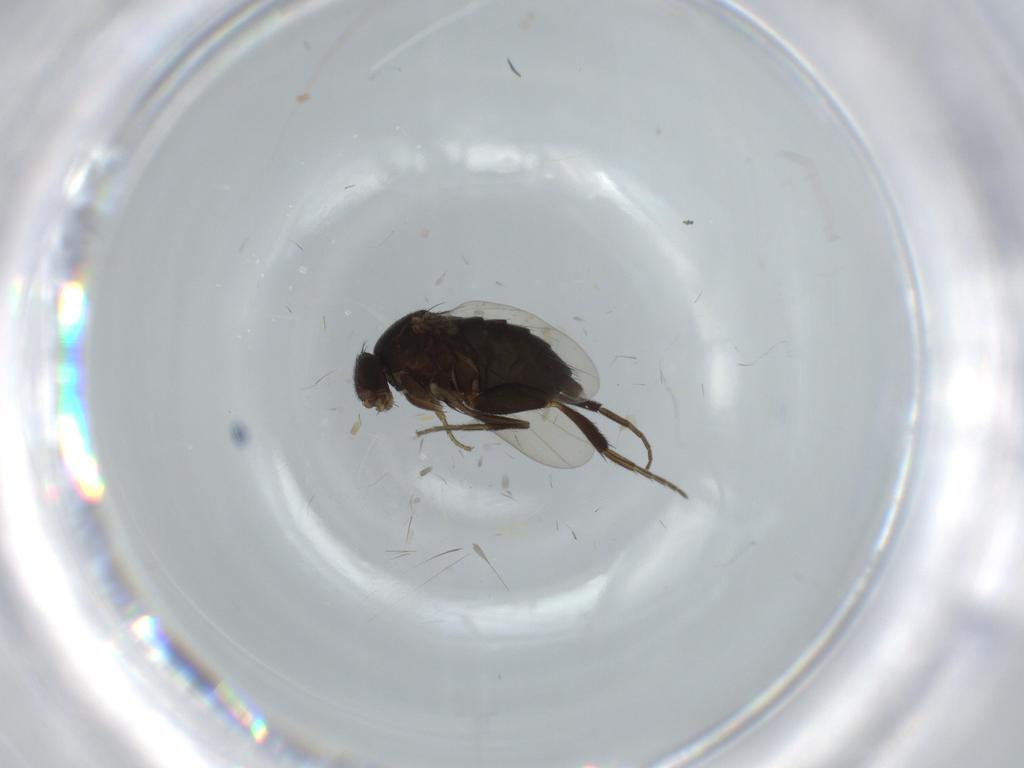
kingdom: Animalia
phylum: Arthropoda
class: Insecta
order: Diptera
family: Phoridae
